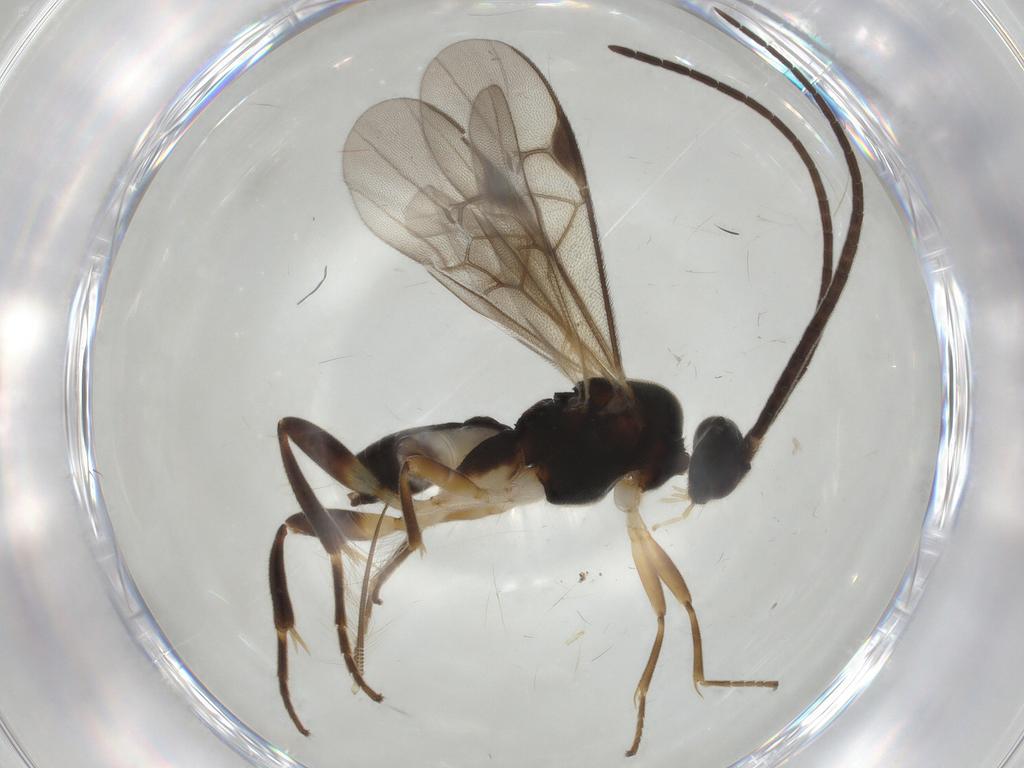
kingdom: Animalia
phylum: Arthropoda
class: Insecta
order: Hymenoptera
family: Braconidae
